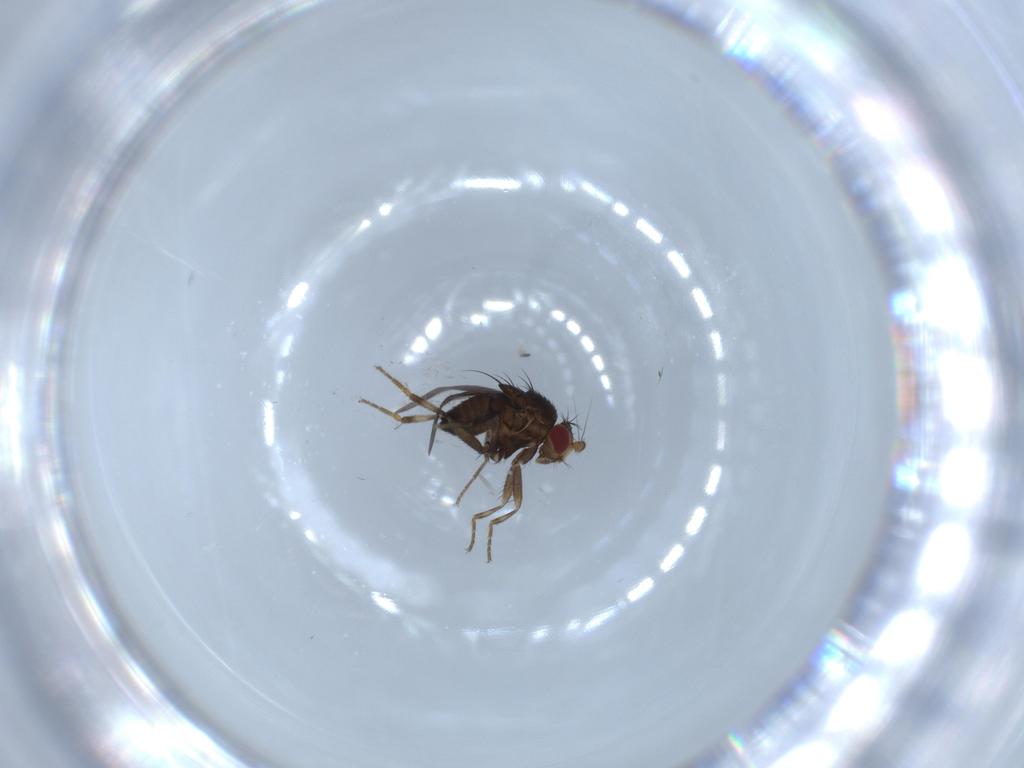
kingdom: Animalia
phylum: Arthropoda
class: Insecta
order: Diptera
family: Sphaeroceridae
